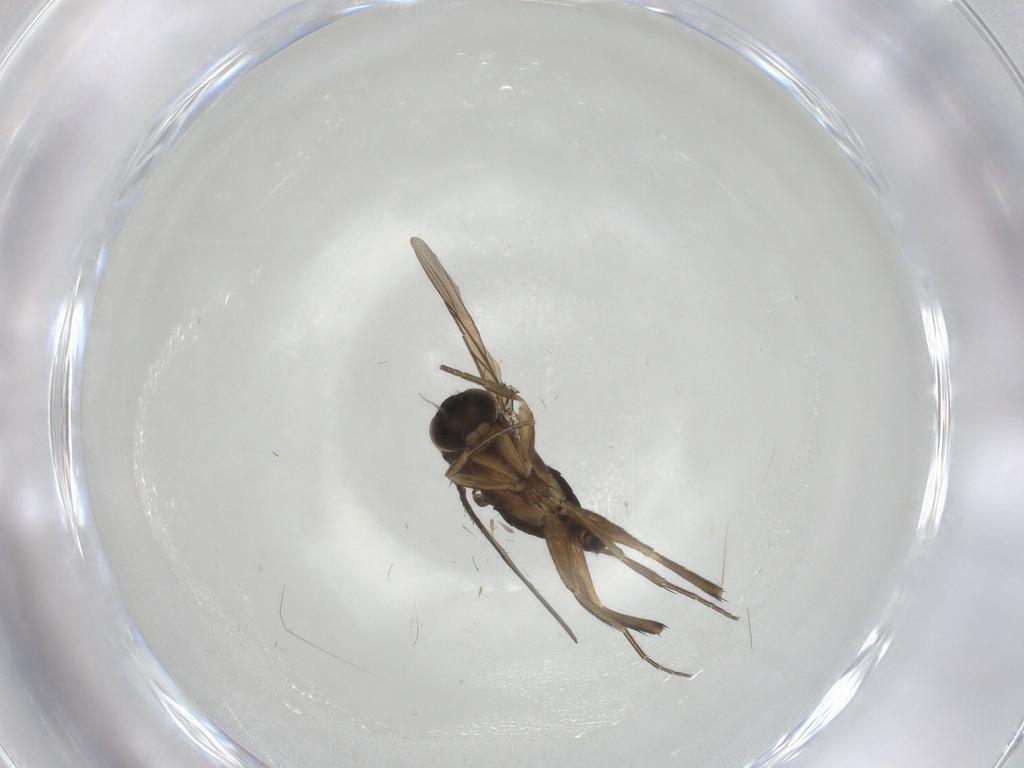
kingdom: Animalia
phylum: Arthropoda
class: Insecta
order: Diptera
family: Phoridae
